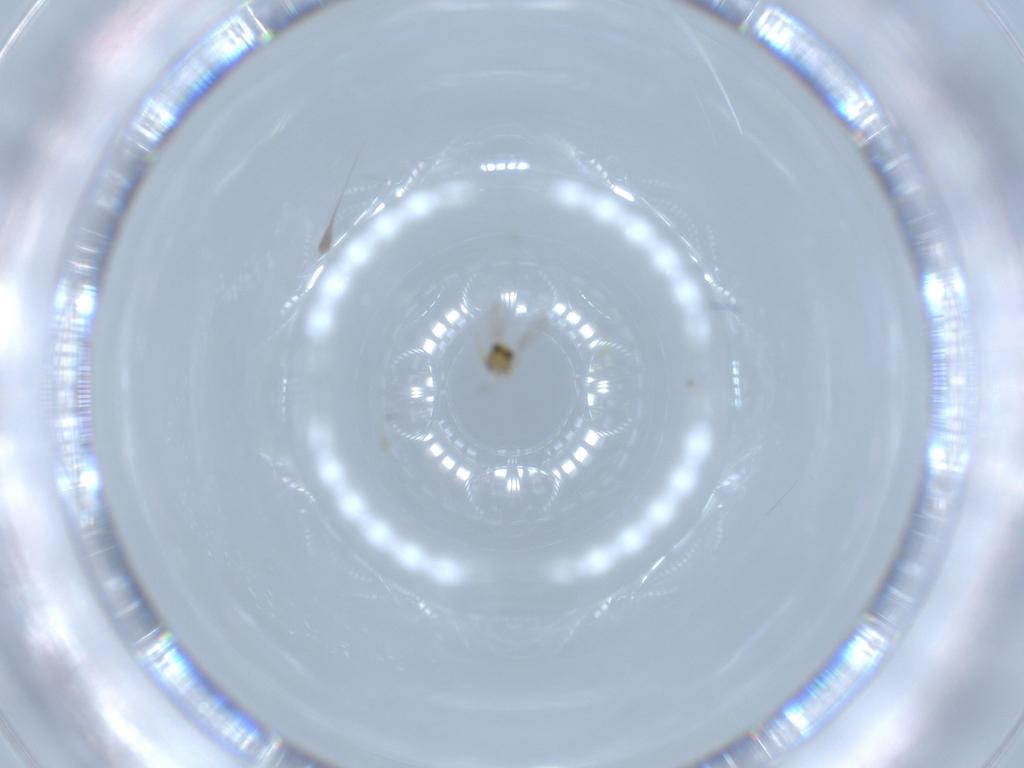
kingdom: Animalia
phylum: Arthropoda
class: Insecta
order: Hymenoptera
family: Aphelinidae
